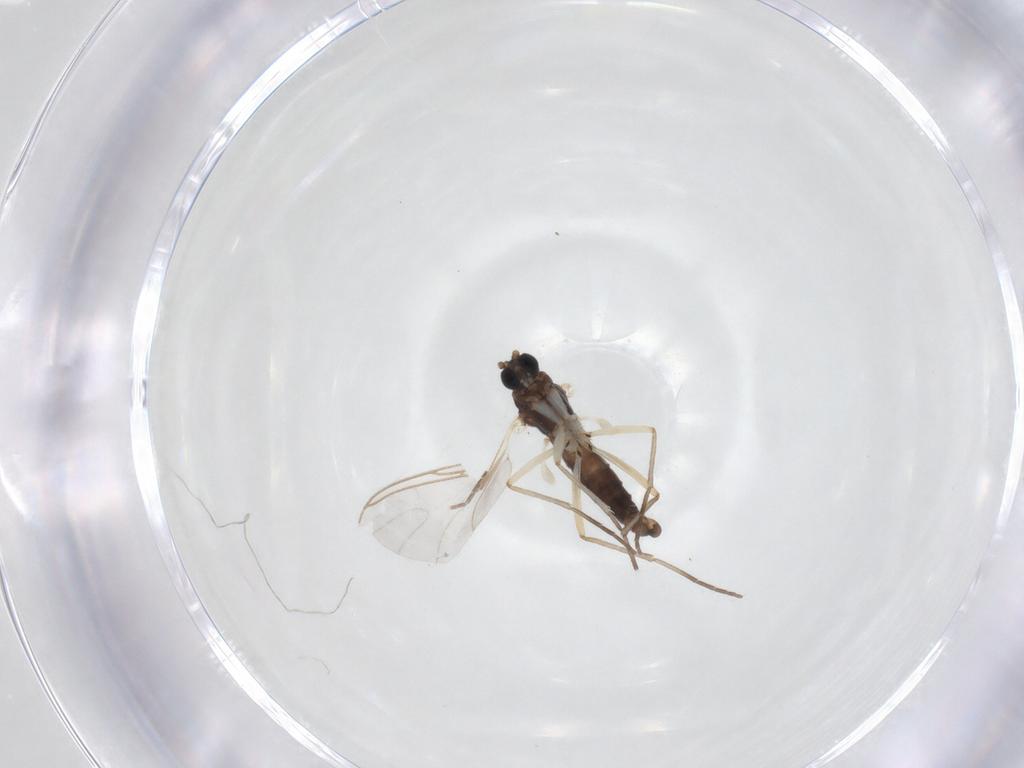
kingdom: Animalia
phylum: Arthropoda
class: Insecta
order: Diptera
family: Sciaridae
